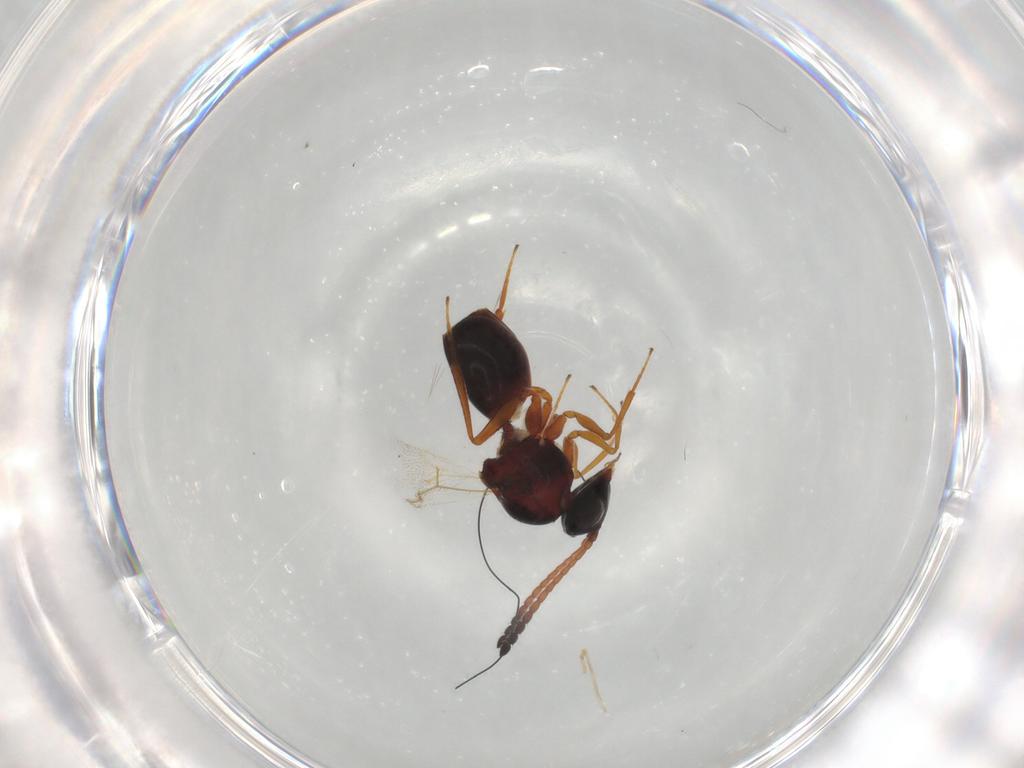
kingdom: Animalia
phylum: Arthropoda
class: Insecta
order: Hymenoptera
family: Figitidae
